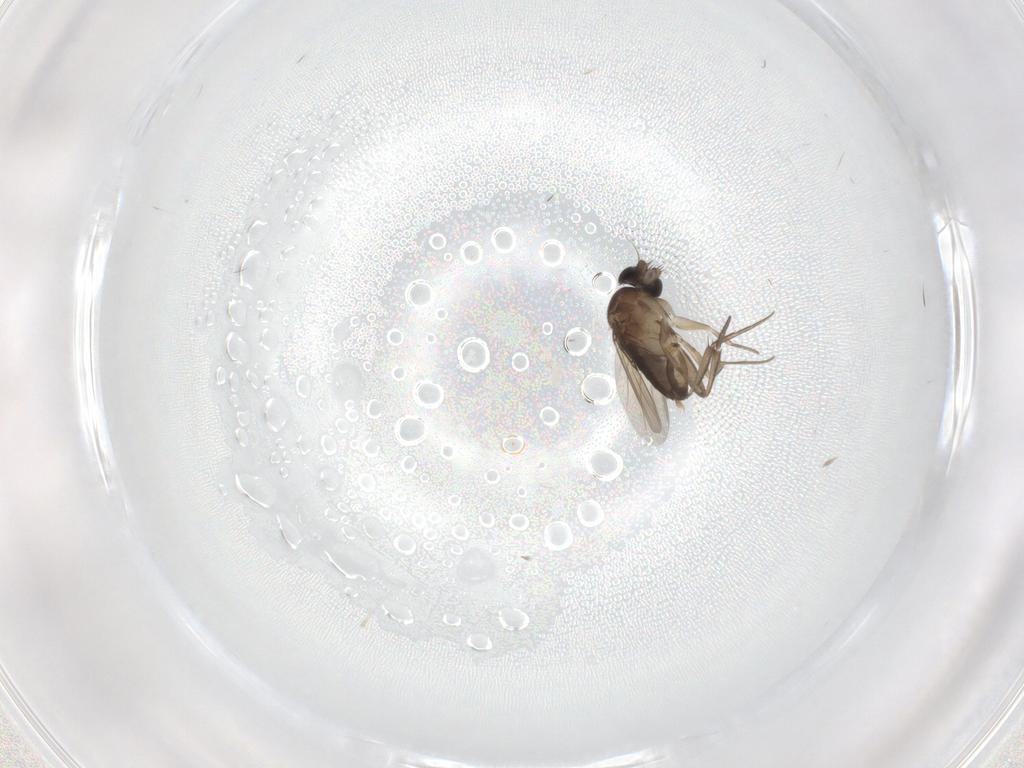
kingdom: Animalia
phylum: Arthropoda
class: Insecta
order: Diptera
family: Phoridae
